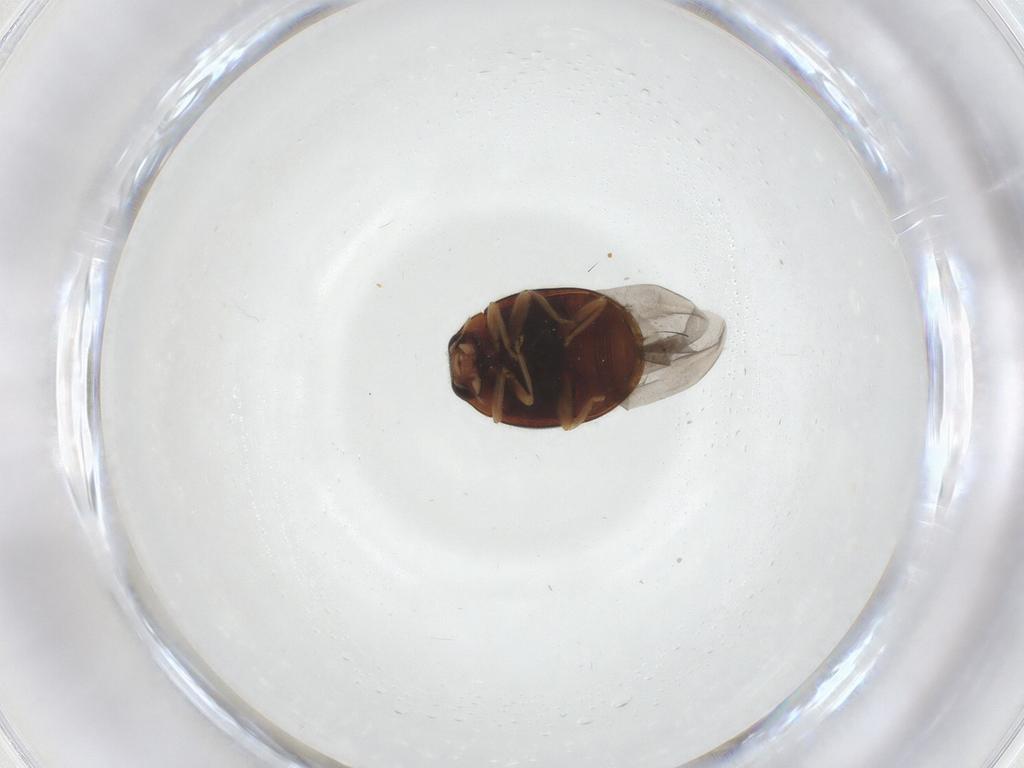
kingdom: Animalia
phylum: Arthropoda
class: Insecta
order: Coleoptera
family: Coccinellidae
